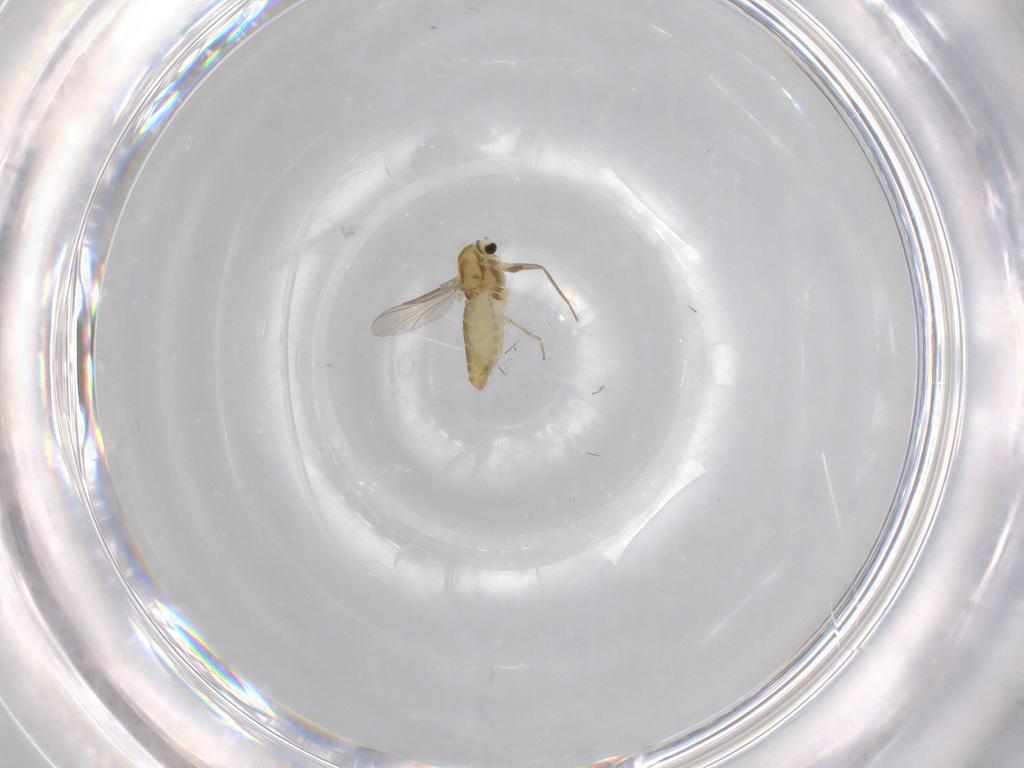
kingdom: Animalia
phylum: Arthropoda
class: Insecta
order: Diptera
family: Chironomidae
